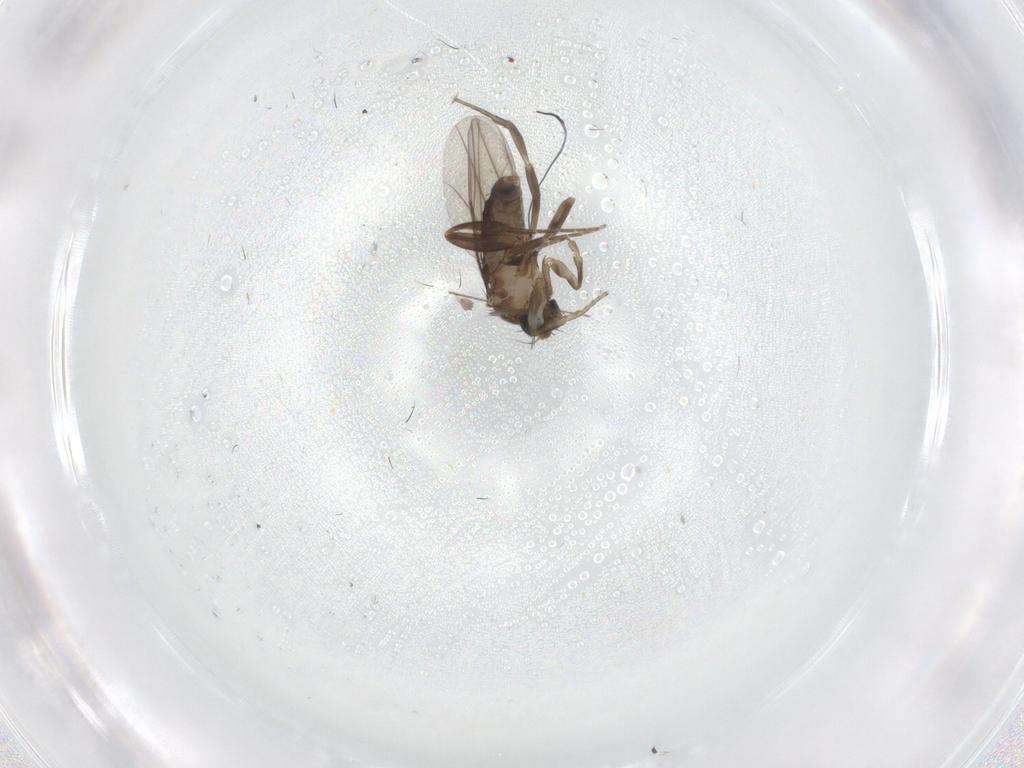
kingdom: Animalia
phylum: Arthropoda
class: Insecta
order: Diptera
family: Phoridae
